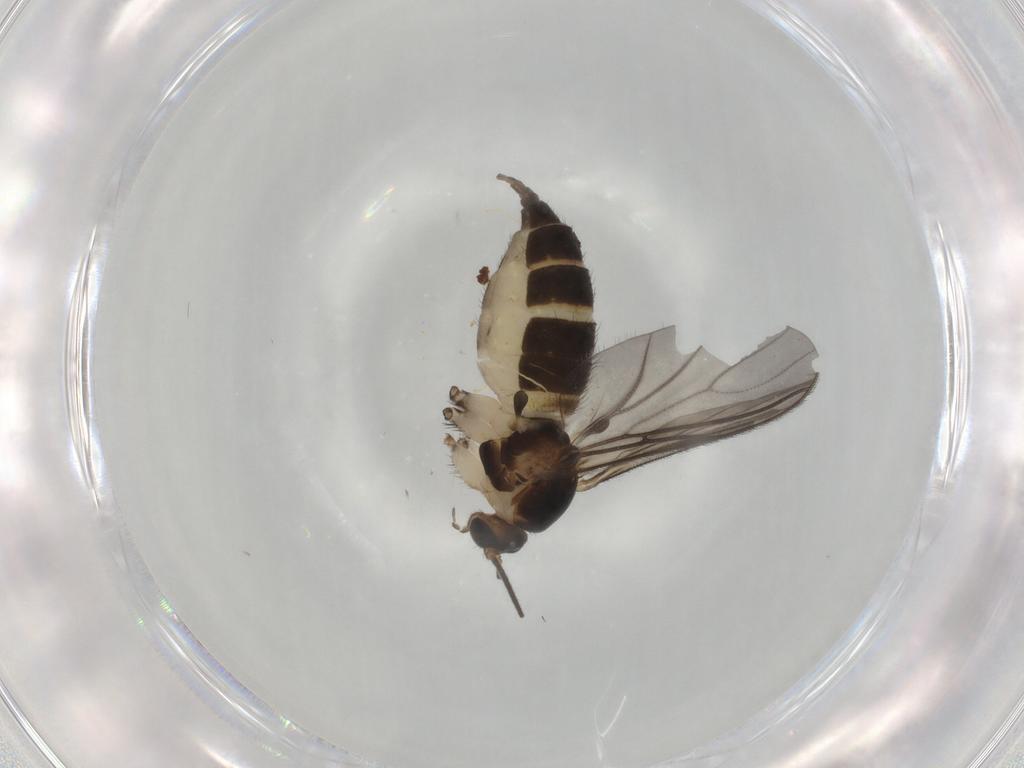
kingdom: Animalia
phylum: Arthropoda
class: Insecta
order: Diptera
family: Sciaridae
